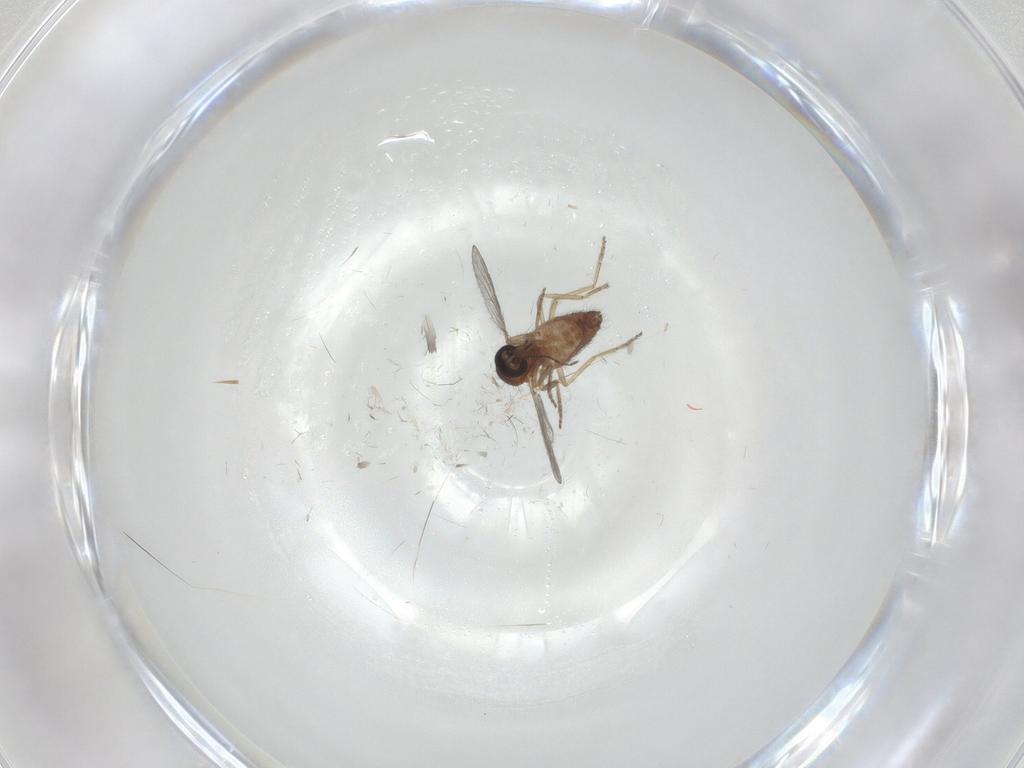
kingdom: Animalia
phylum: Arthropoda
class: Insecta
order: Diptera
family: Ceratopogonidae
